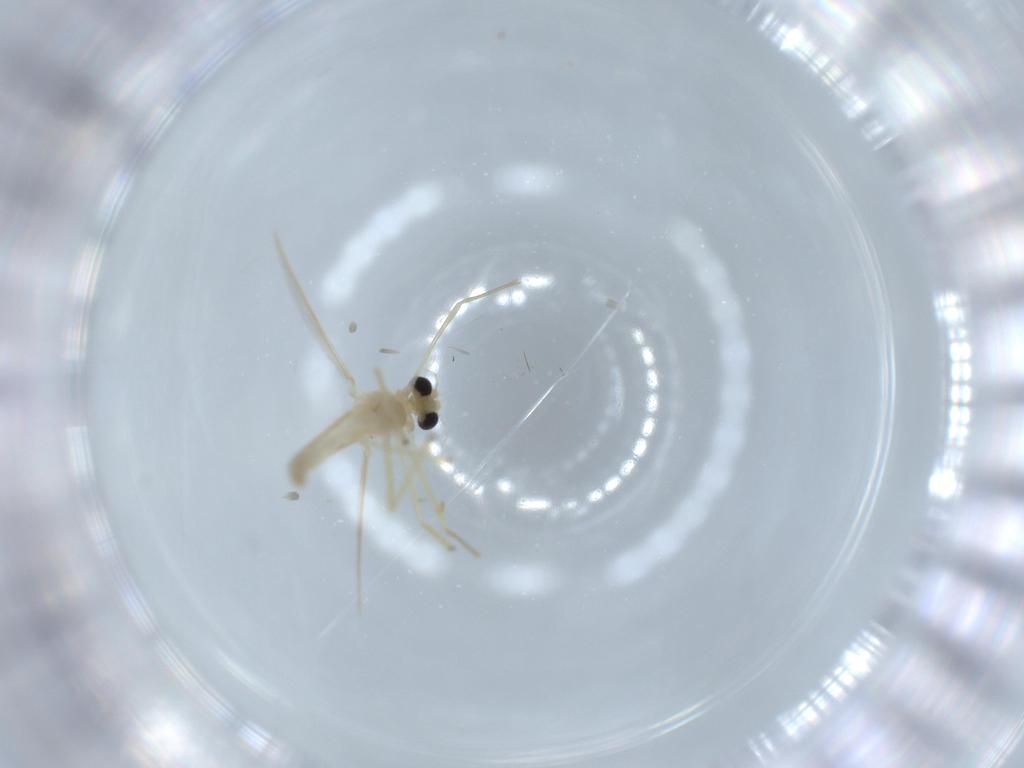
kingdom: Animalia
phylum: Arthropoda
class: Insecta
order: Diptera
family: Chironomidae
